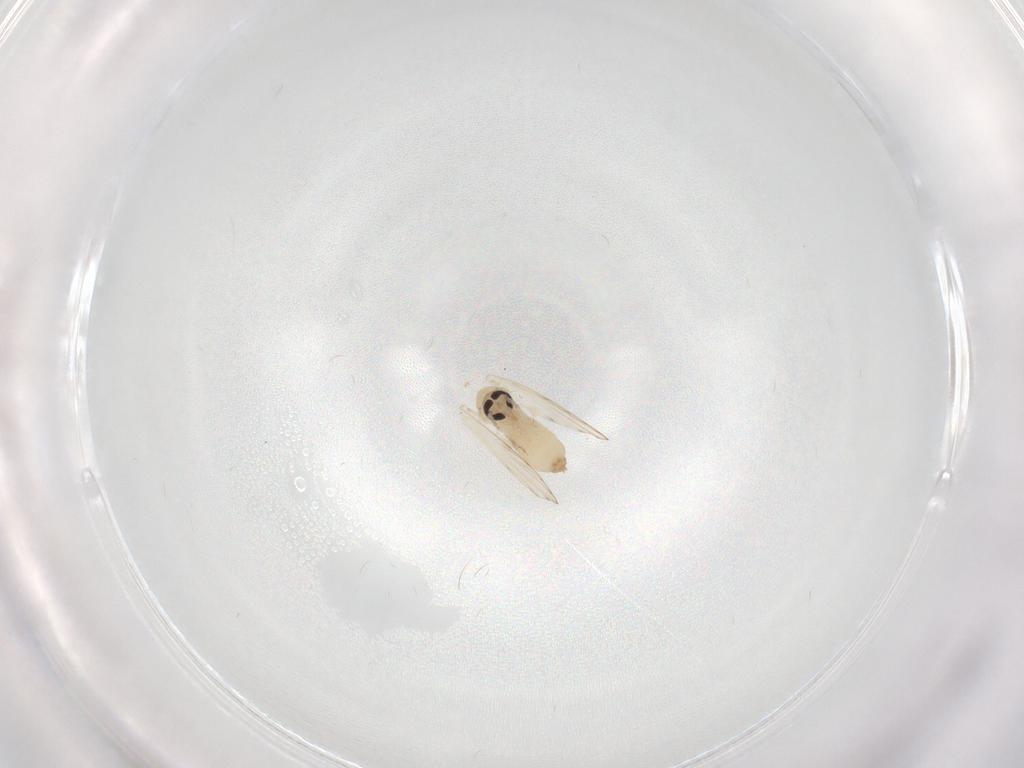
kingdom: Animalia
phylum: Arthropoda
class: Insecta
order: Diptera
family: Psychodidae
